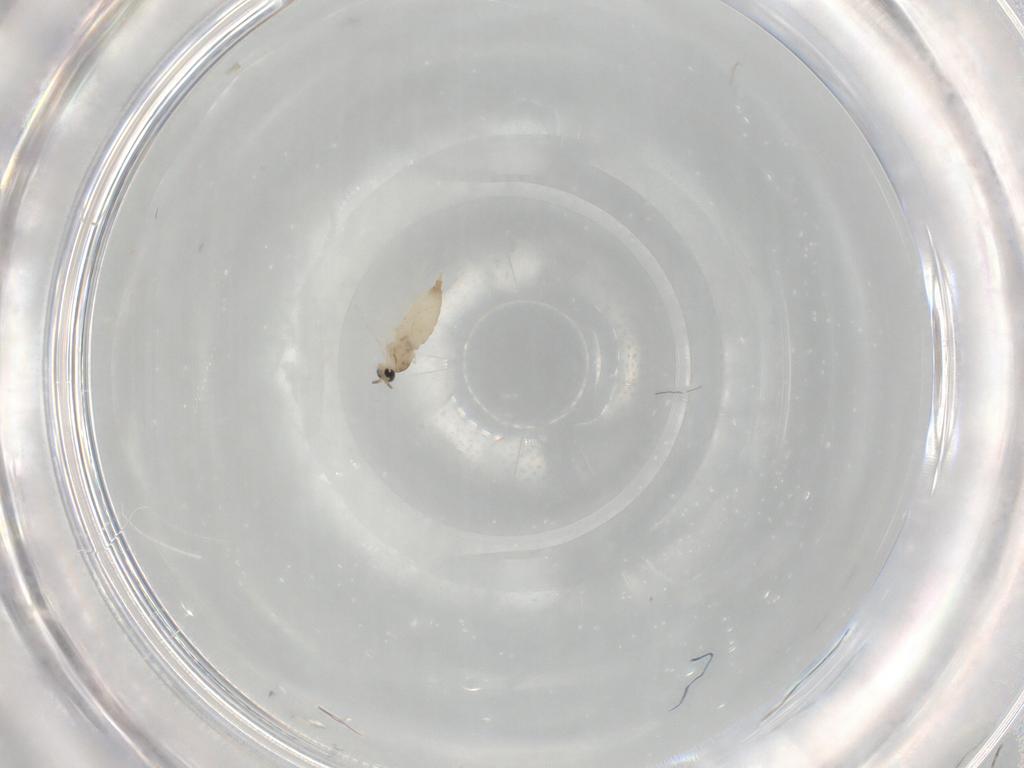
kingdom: Animalia
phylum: Arthropoda
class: Insecta
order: Diptera
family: Cecidomyiidae
